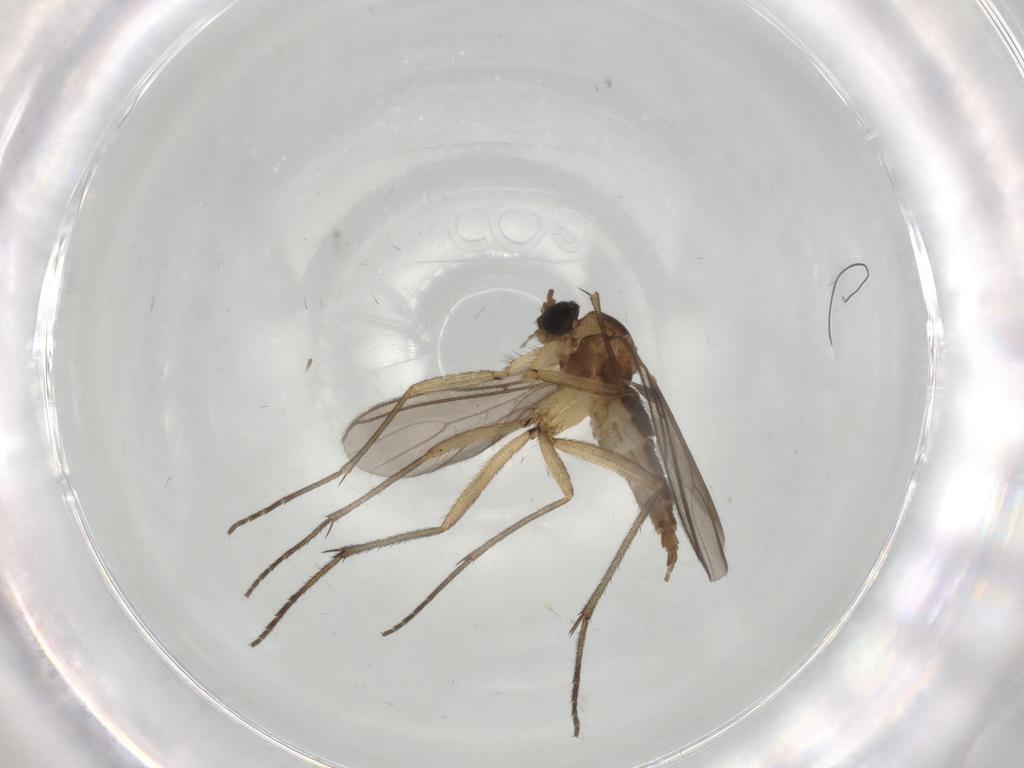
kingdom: Animalia
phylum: Arthropoda
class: Insecta
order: Diptera
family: Sciaridae
